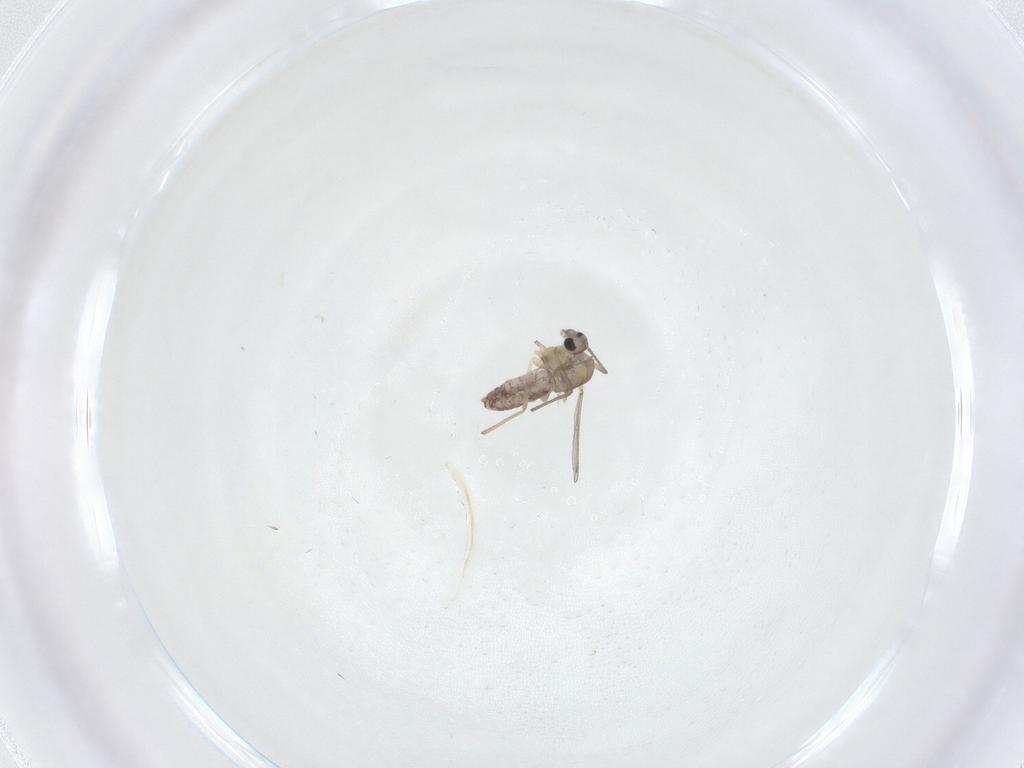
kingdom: Animalia
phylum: Arthropoda
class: Insecta
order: Diptera
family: Chironomidae
